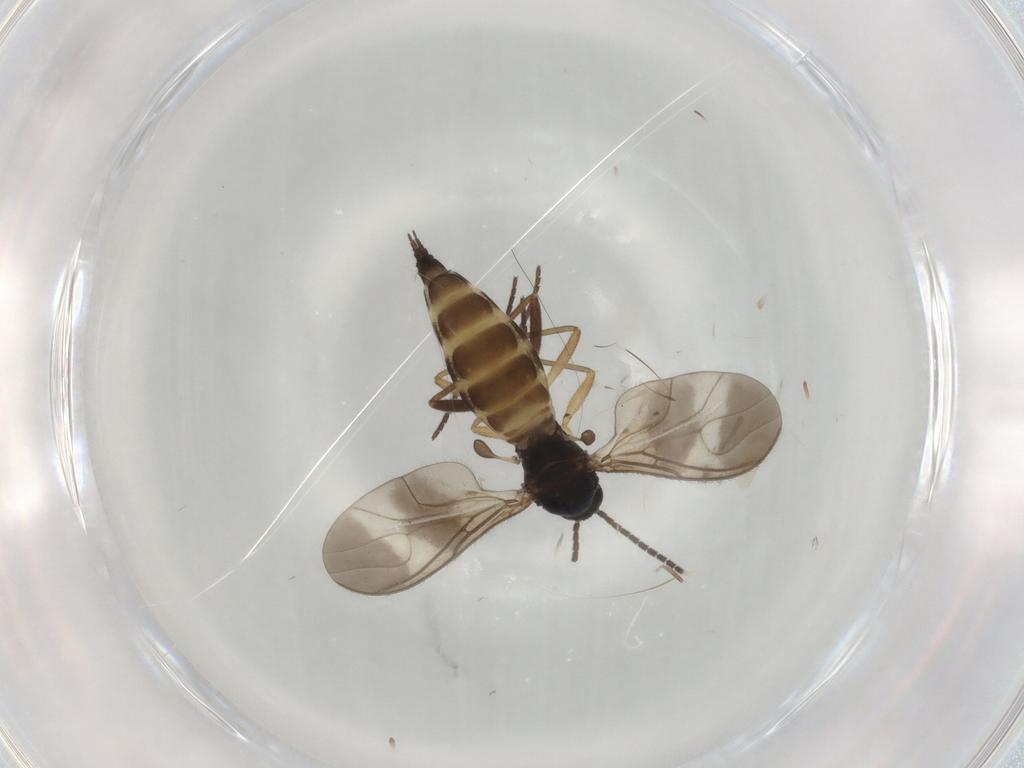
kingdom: Animalia
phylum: Arthropoda
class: Insecta
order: Diptera
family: Sciaridae
